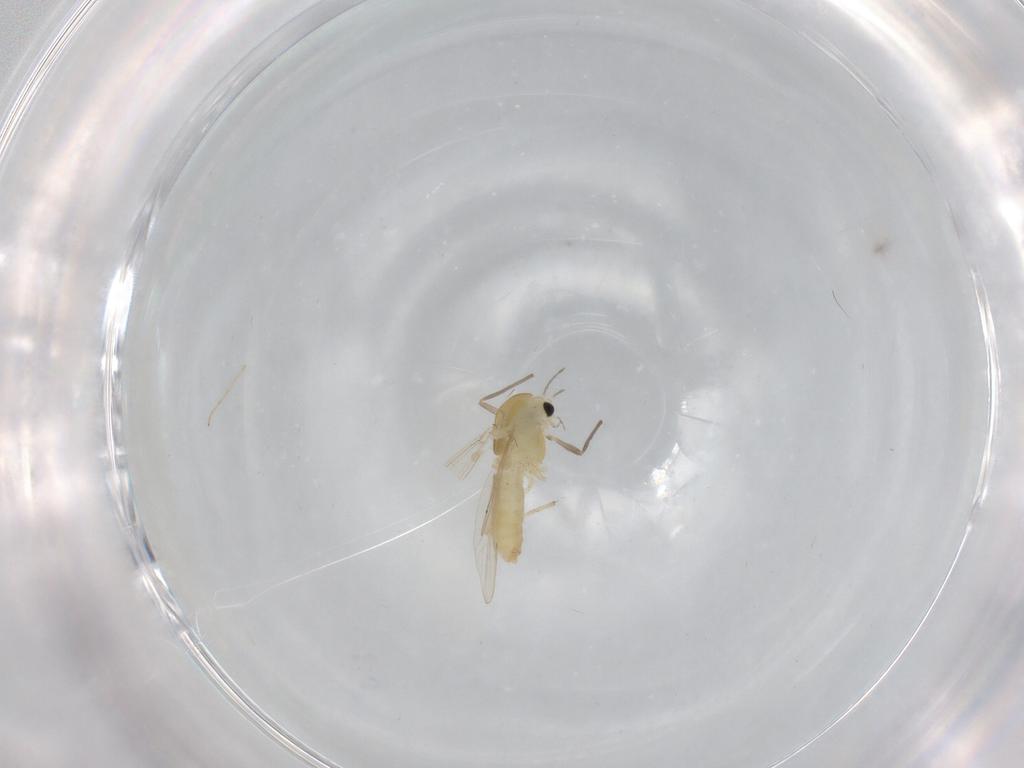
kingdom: Animalia
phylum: Arthropoda
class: Insecta
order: Diptera
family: Chironomidae
